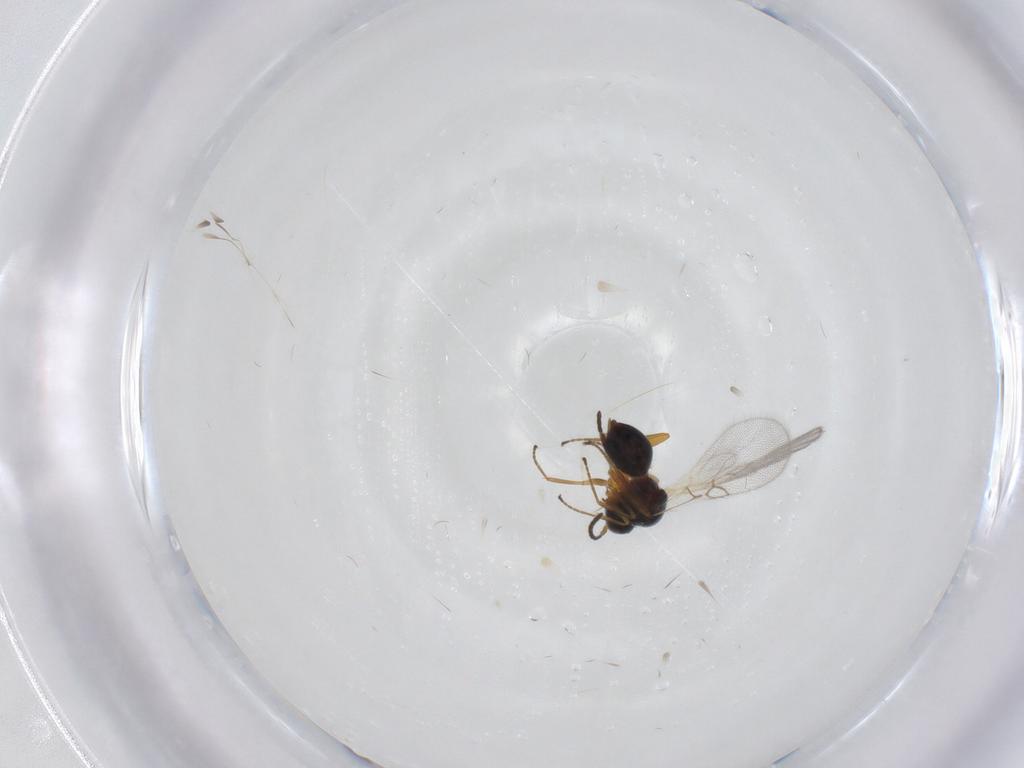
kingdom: Animalia
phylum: Arthropoda
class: Insecta
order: Hymenoptera
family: Figitidae
